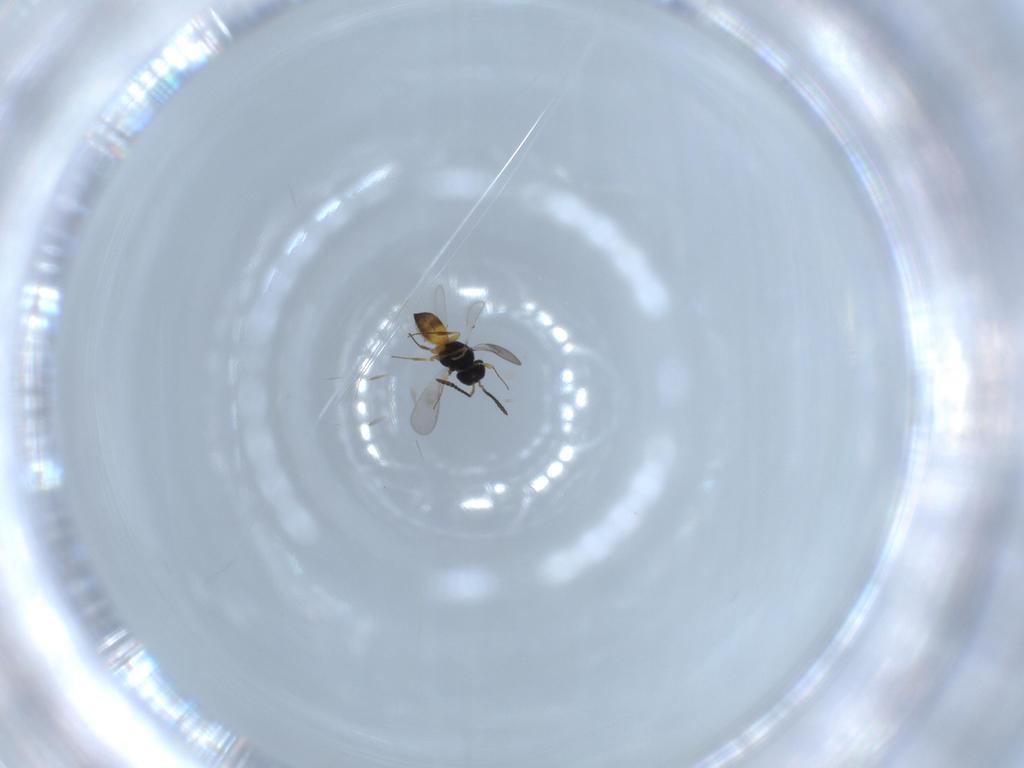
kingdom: Animalia
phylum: Arthropoda
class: Insecta
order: Hymenoptera
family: Scelionidae
